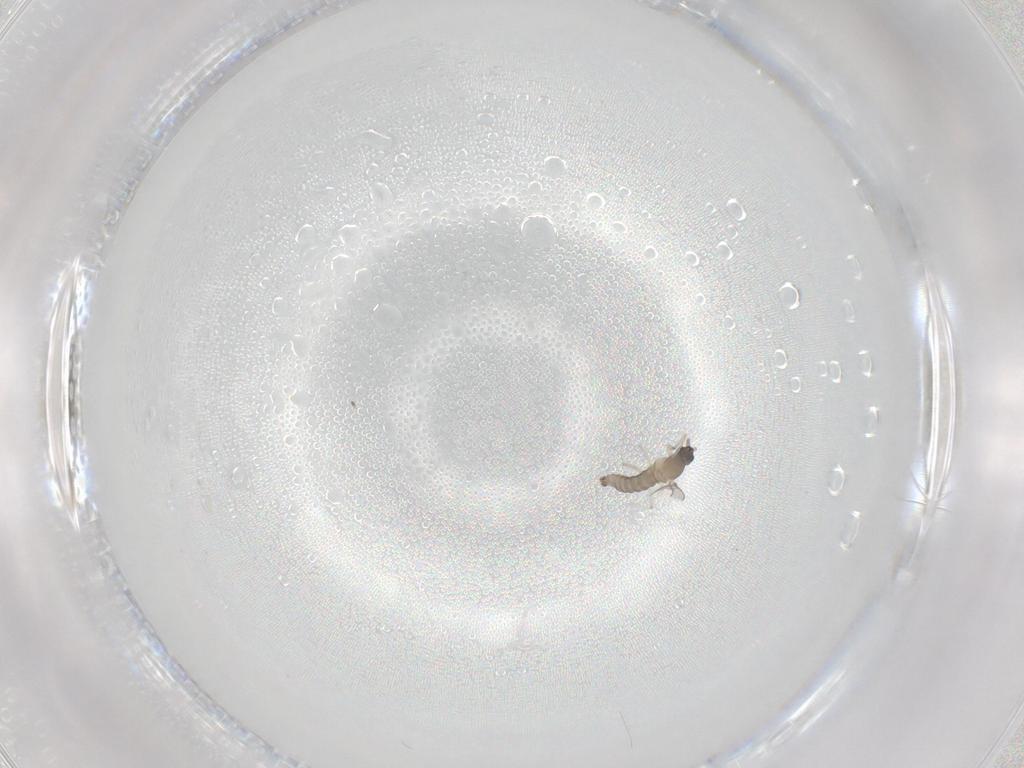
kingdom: Animalia
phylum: Arthropoda
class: Insecta
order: Diptera
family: Cecidomyiidae
